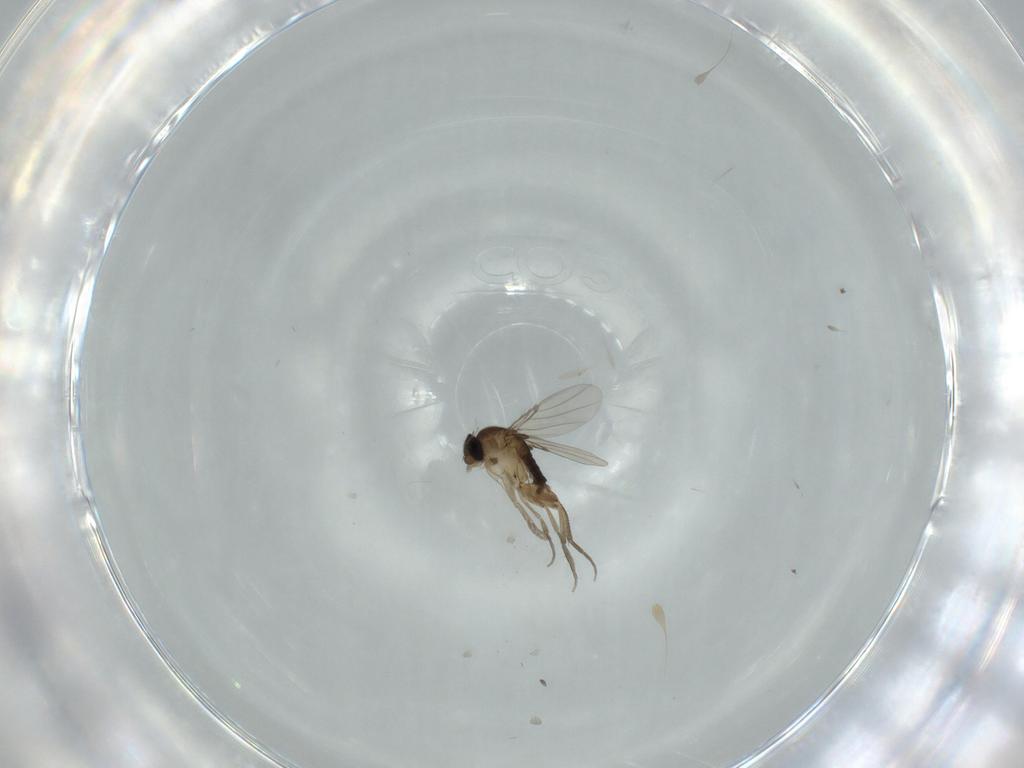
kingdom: Animalia
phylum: Arthropoda
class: Insecta
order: Diptera
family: Phoridae
